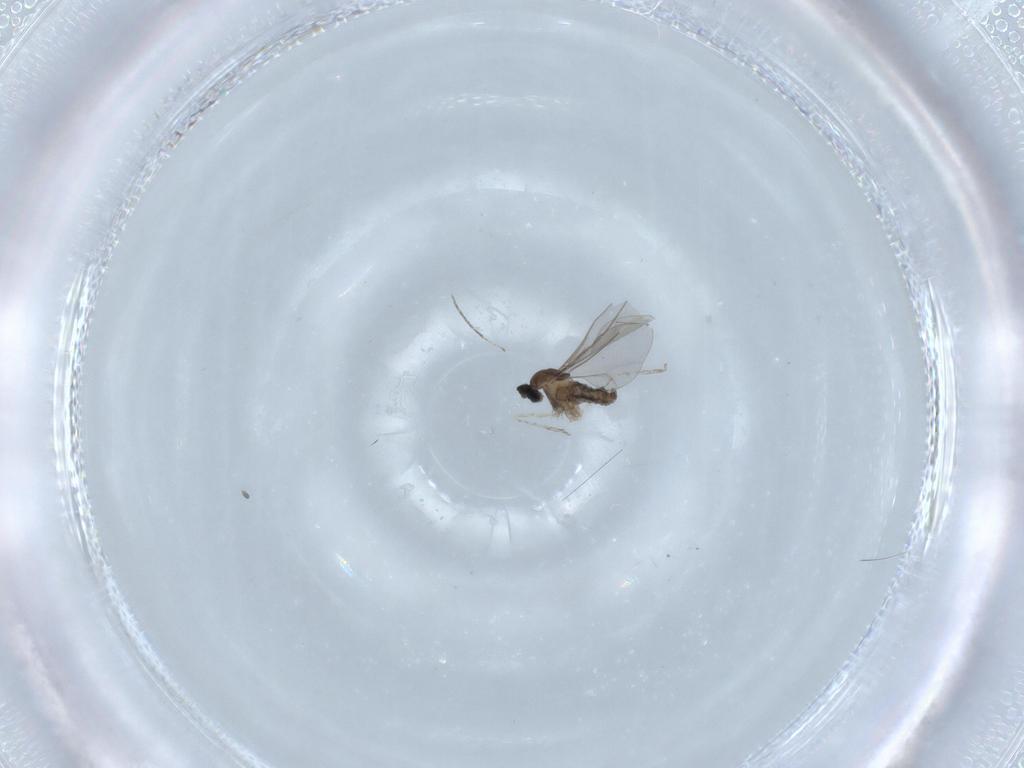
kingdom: Animalia
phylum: Arthropoda
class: Insecta
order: Diptera
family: Cecidomyiidae
